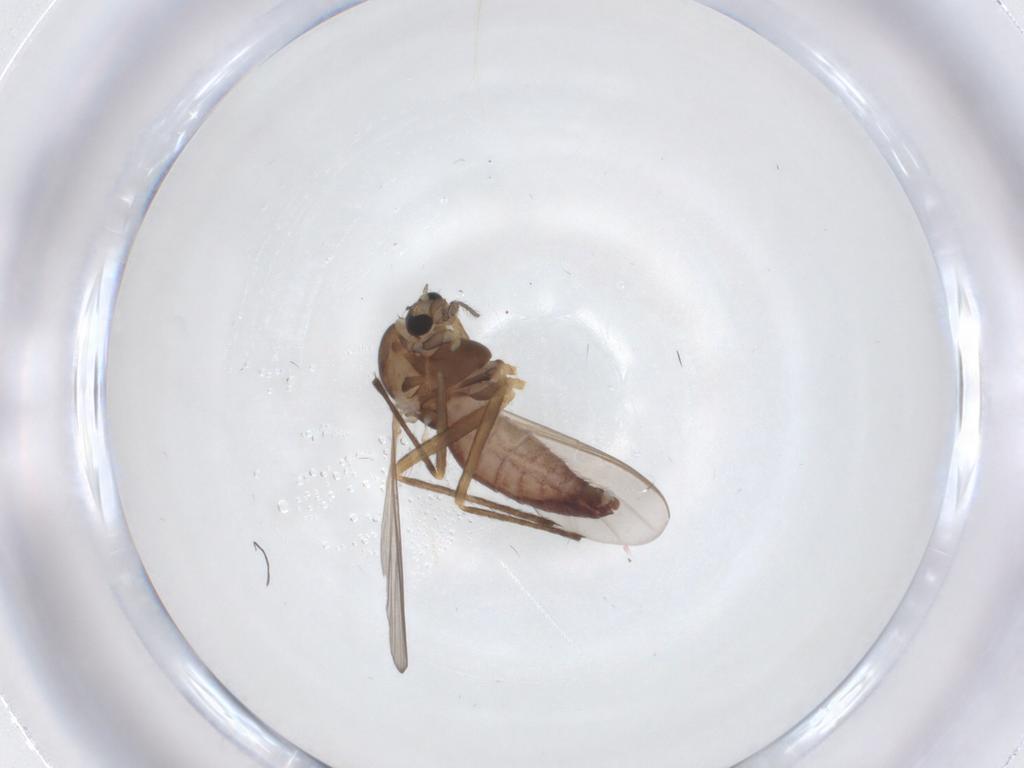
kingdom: Animalia
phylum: Arthropoda
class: Insecta
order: Diptera
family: Chironomidae
